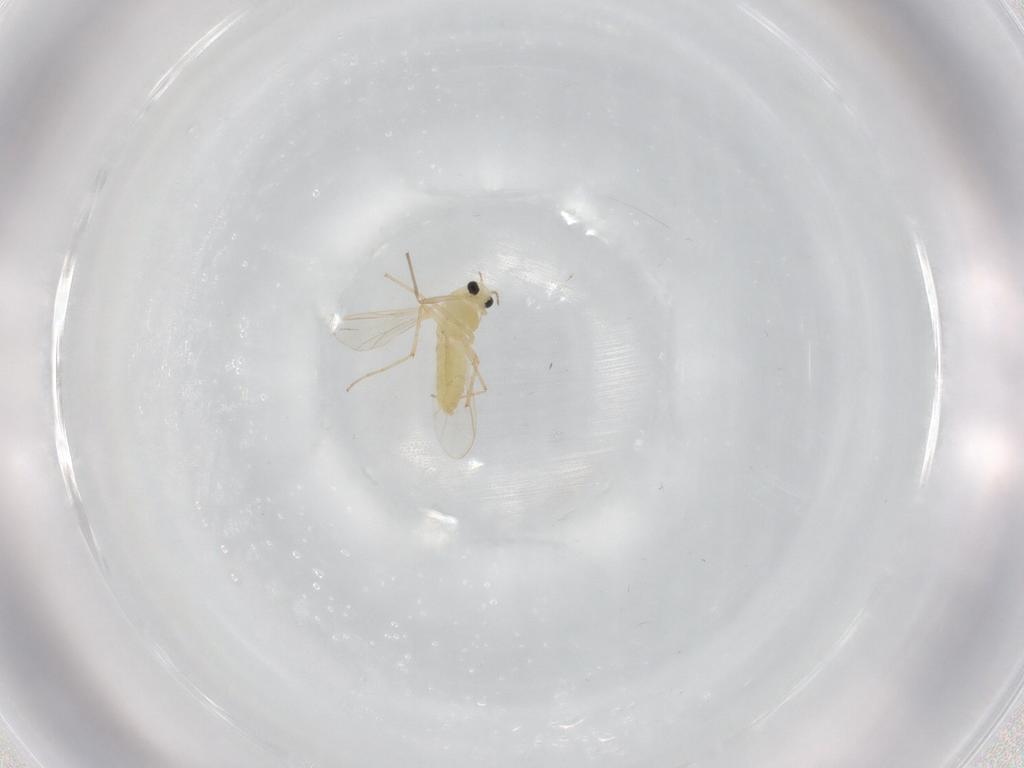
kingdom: Animalia
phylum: Arthropoda
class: Insecta
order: Diptera
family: Chironomidae
